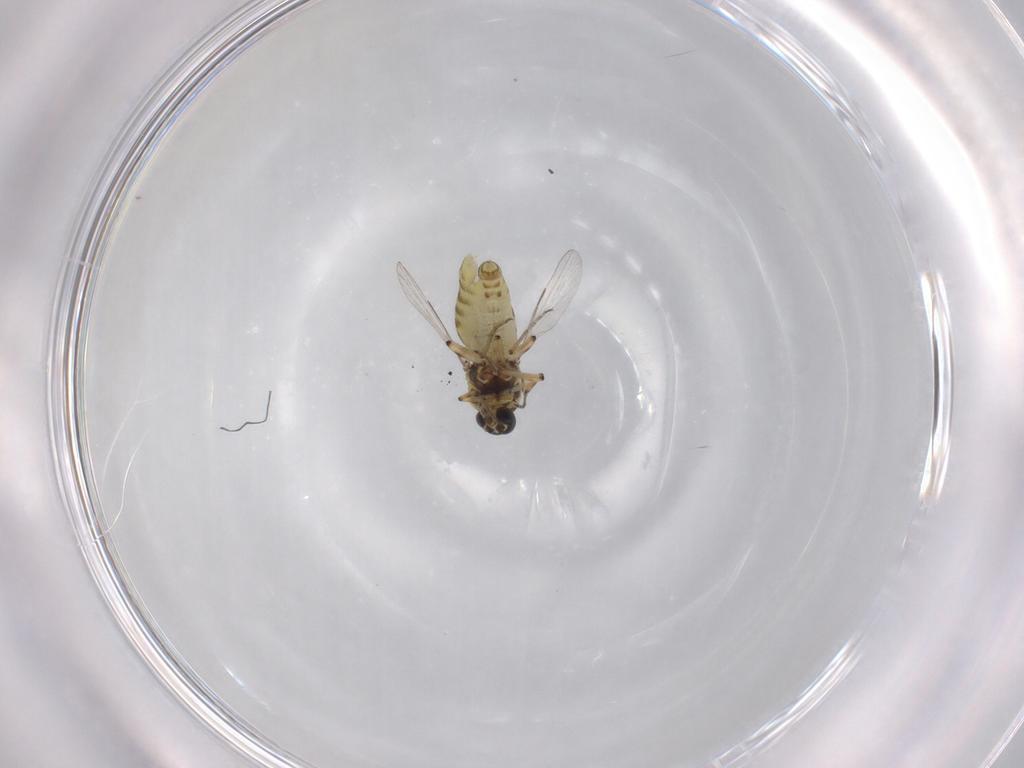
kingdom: Animalia
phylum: Arthropoda
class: Insecta
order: Diptera
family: Ceratopogonidae
